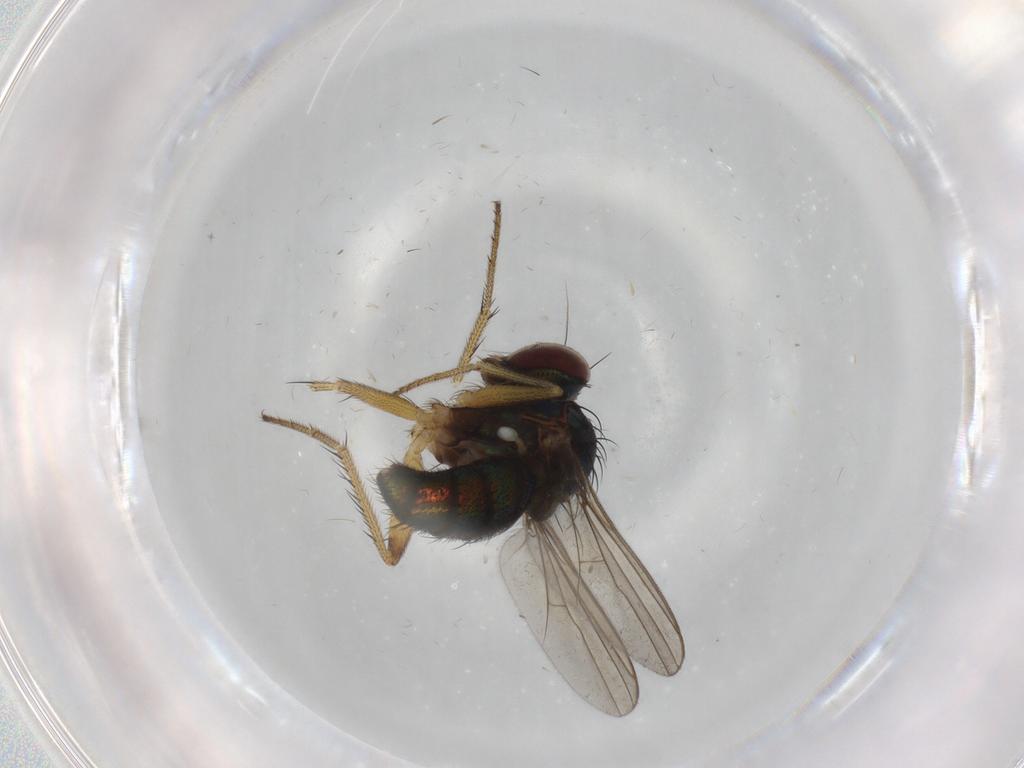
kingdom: Animalia
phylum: Arthropoda
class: Insecta
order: Diptera
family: Dolichopodidae
